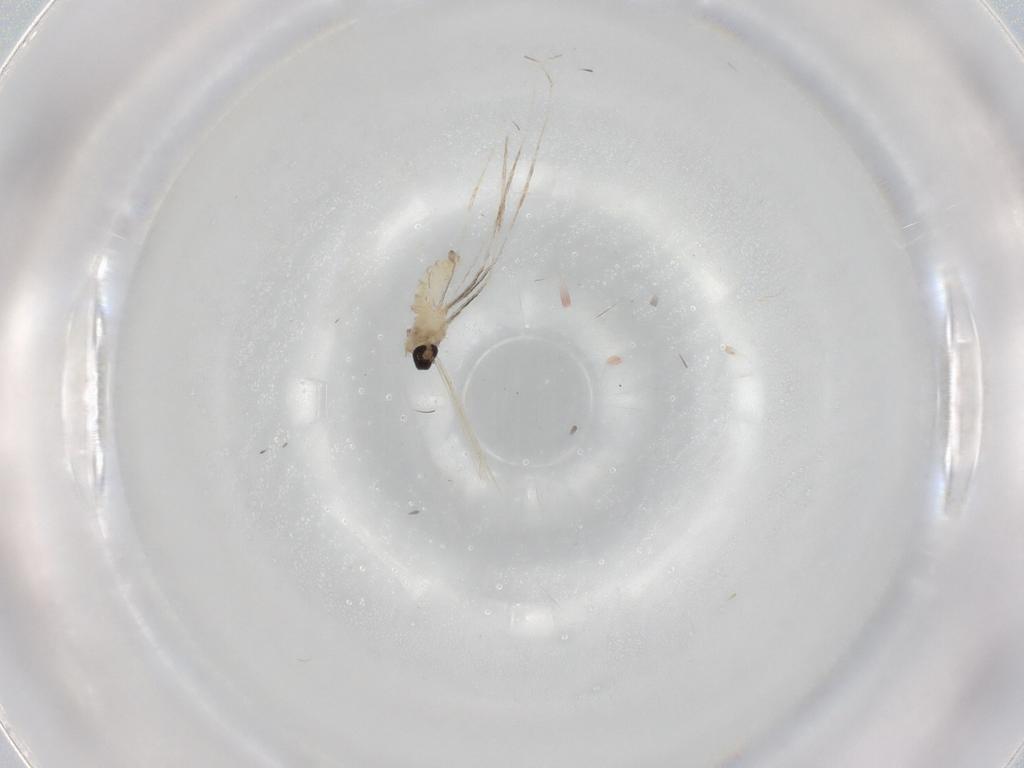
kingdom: Animalia
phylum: Arthropoda
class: Insecta
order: Diptera
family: Cecidomyiidae
